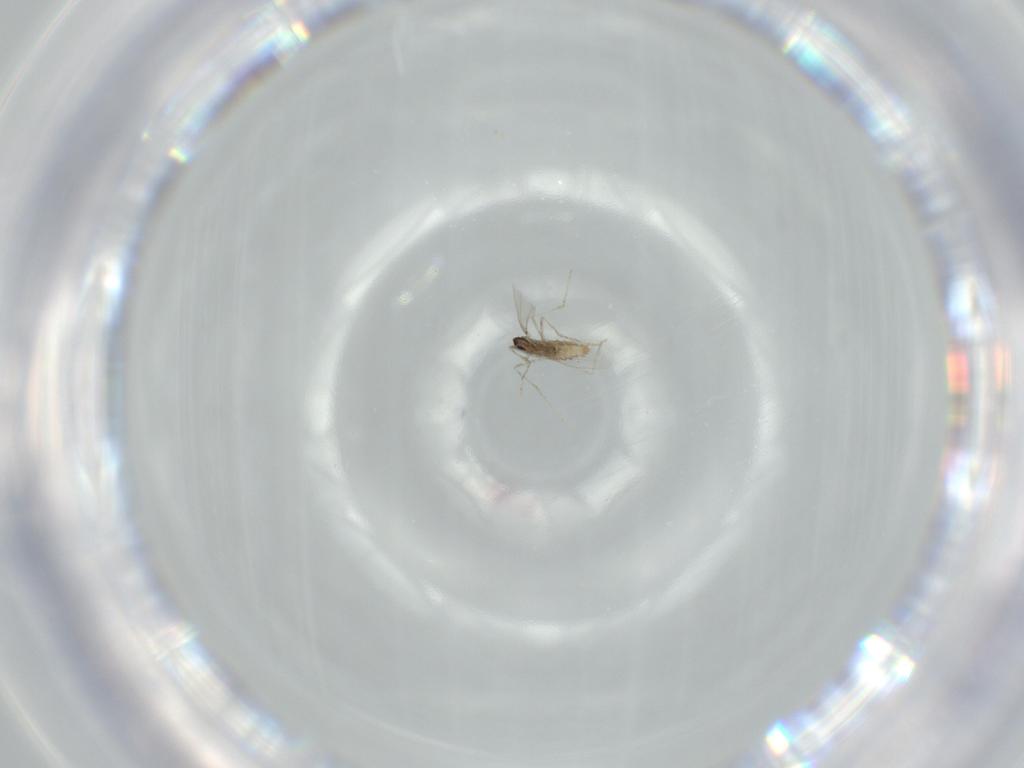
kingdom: Animalia
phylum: Arthropoda
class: Insecta
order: Diptera
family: Cecidomyiidae
